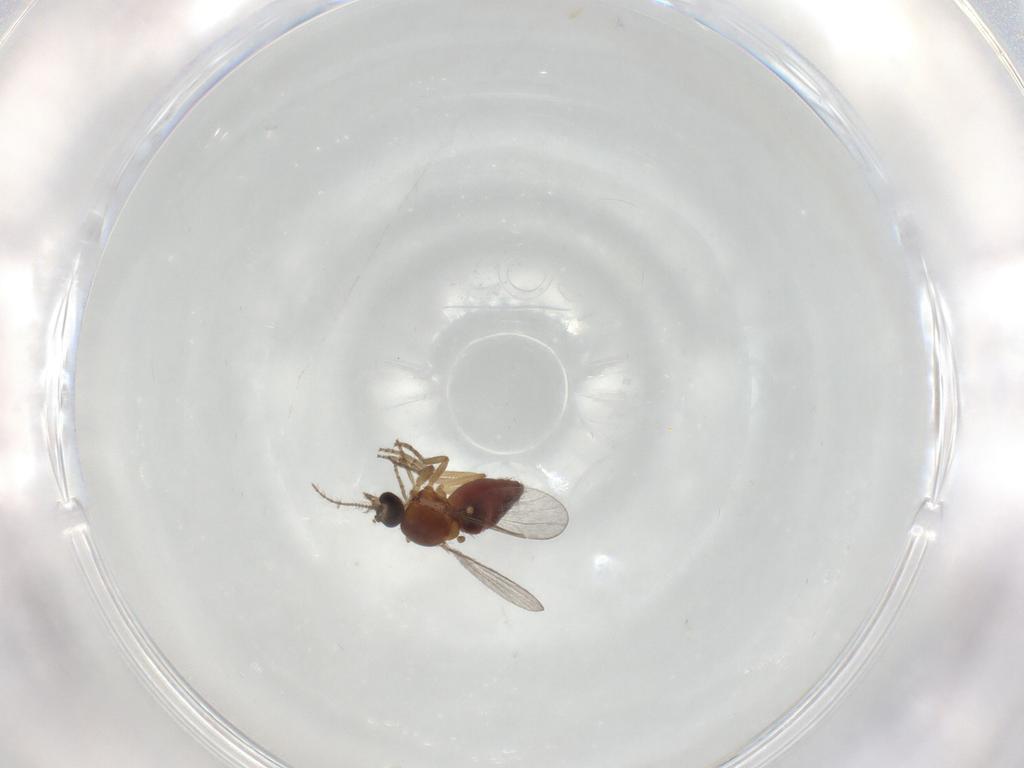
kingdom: Animalia
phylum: Arthropoda
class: Insecta
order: Diptera
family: Ceratopogonidae
